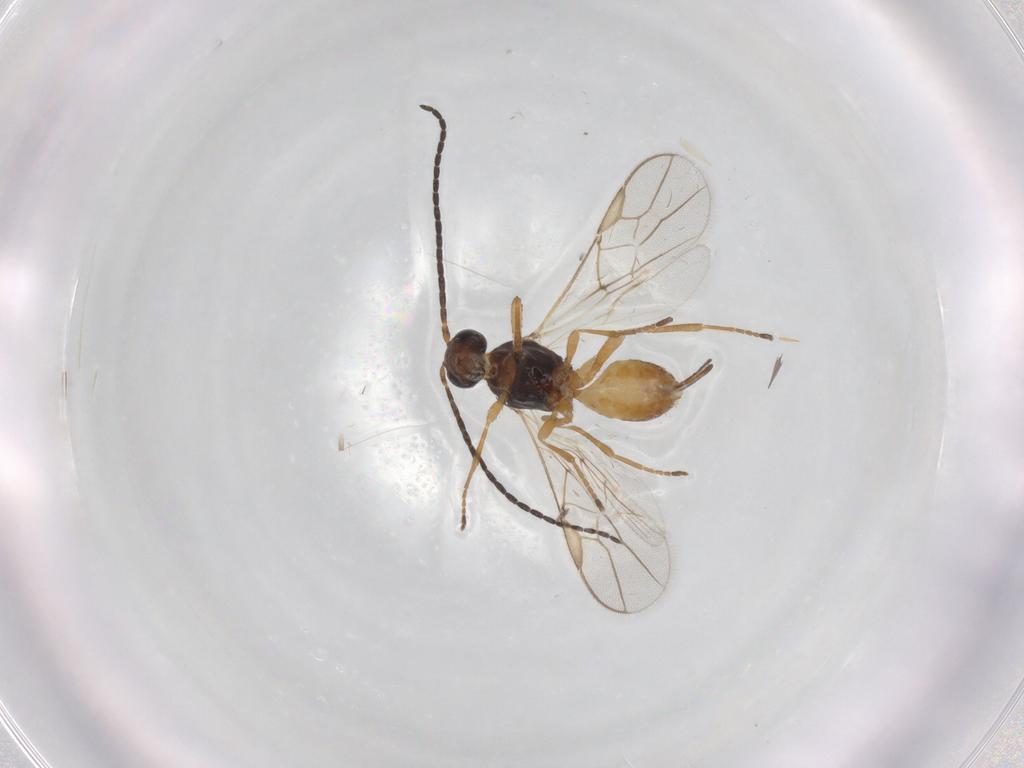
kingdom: Animalia
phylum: Arthropoda
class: Insecta
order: Hymenoptera
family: Braconidae
